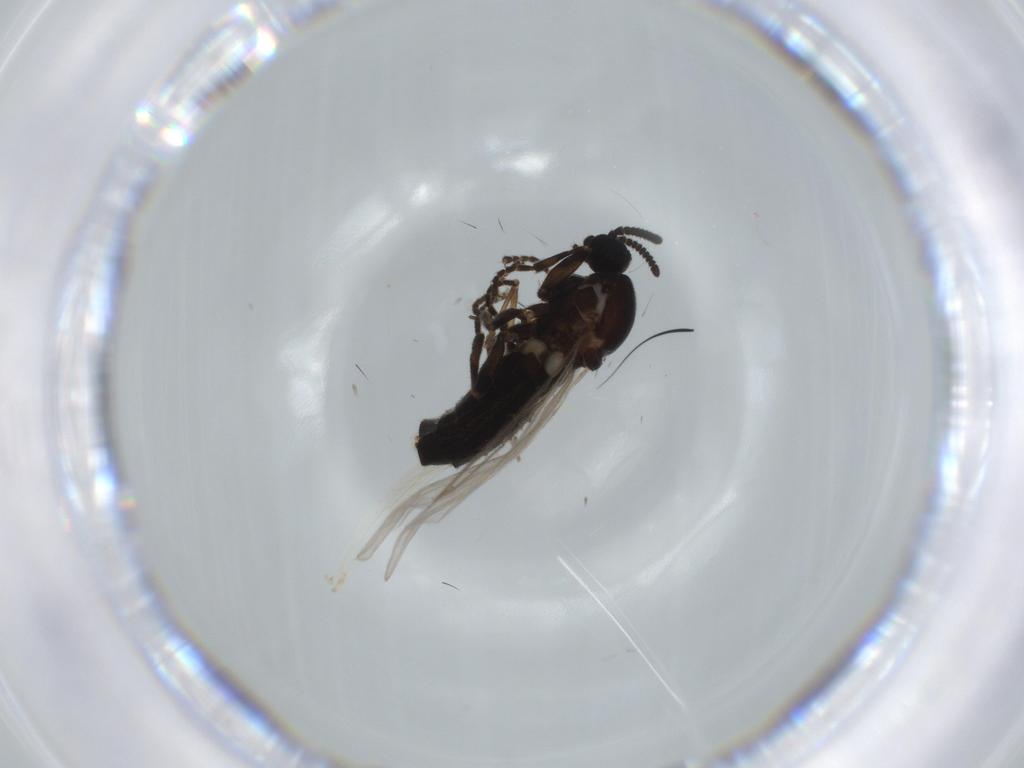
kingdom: Animalia
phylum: Arthropoda
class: Insecta
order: Diptera
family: Scatopsidae
